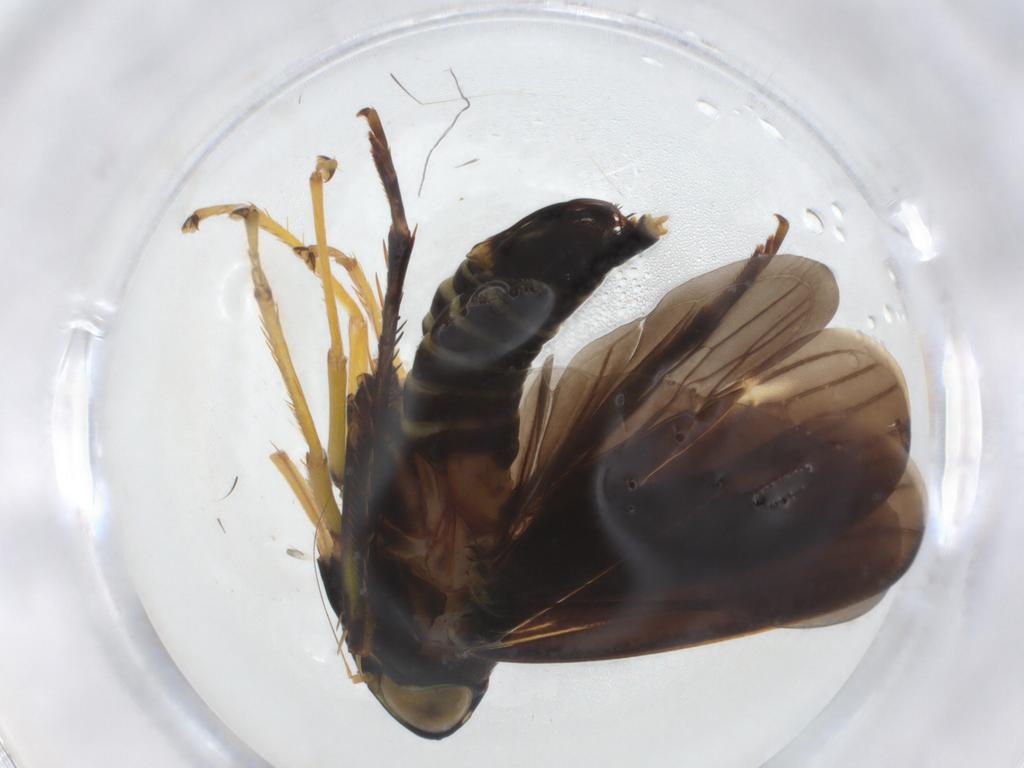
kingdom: Animalia
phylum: Arthropoda
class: Insecta
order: Hemiptera
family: Cicadellidae
